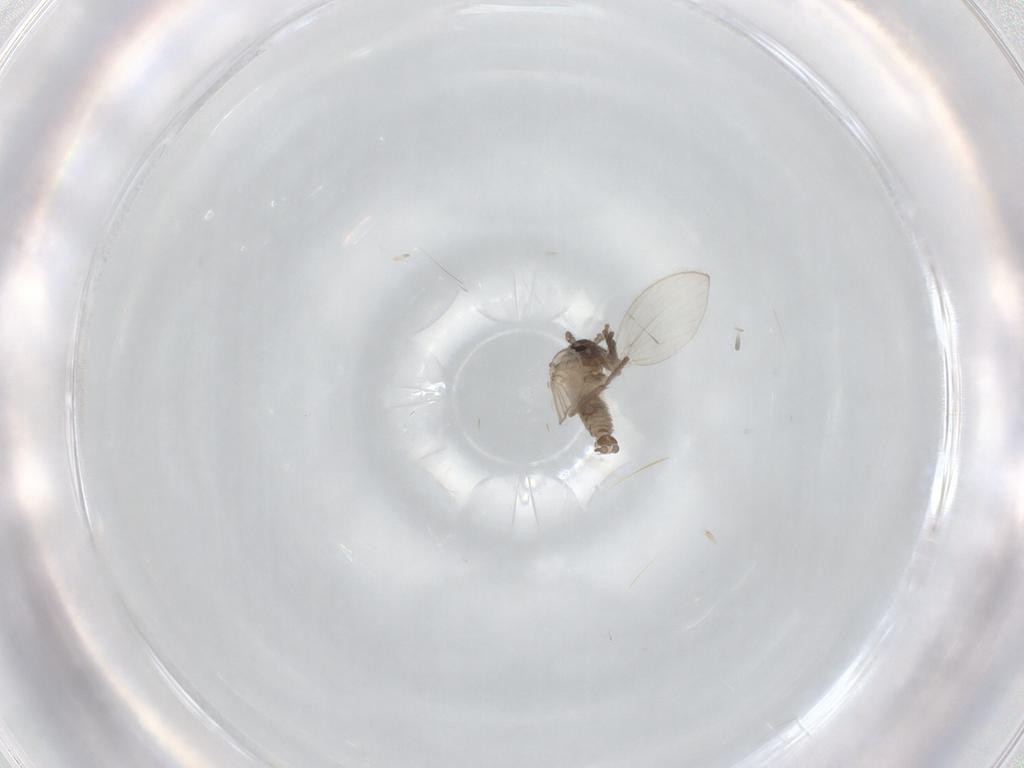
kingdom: Animalia
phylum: Arthropoda
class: Insecta
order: Diptera
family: Psychodidae
